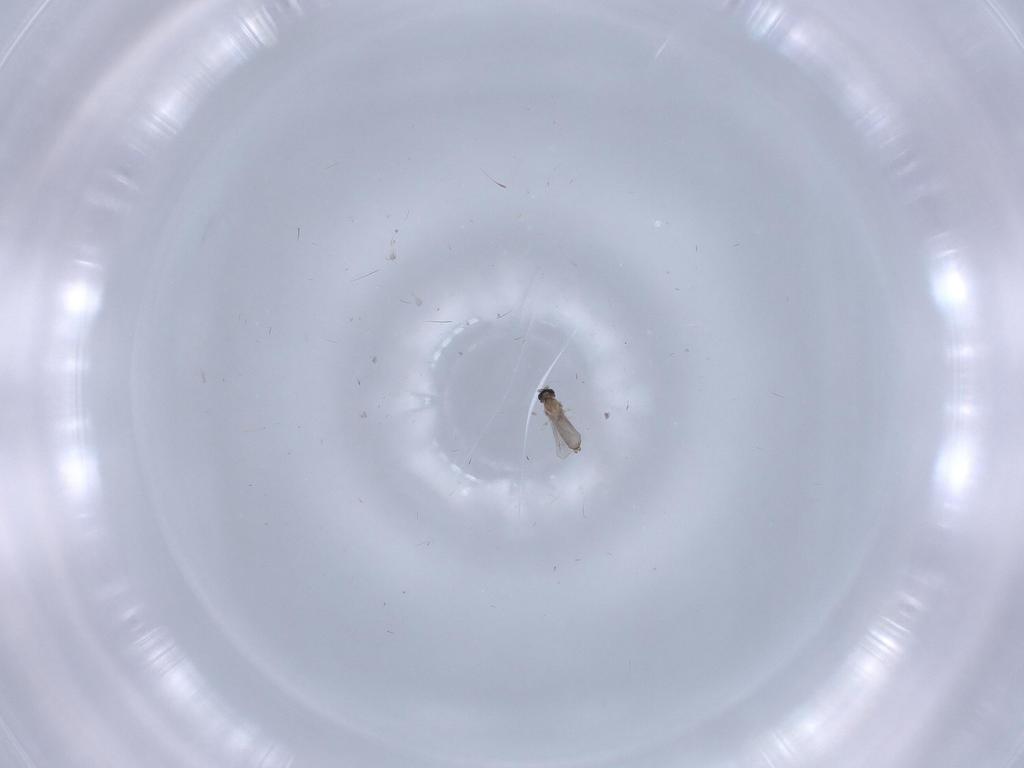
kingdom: Animalia
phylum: Arthropoda
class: Insecta
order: Diptera
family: Cecidomyiidae
